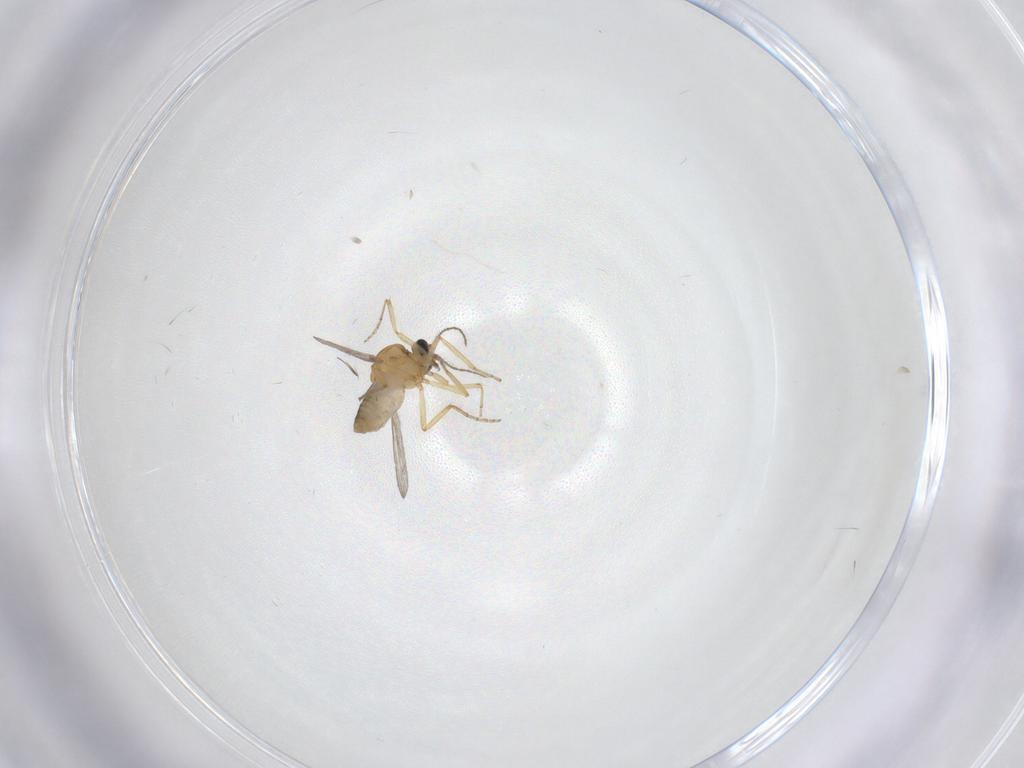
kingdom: Animalia
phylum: Arthropoda
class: Insecta
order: Diptera
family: Ceratopogonidae
